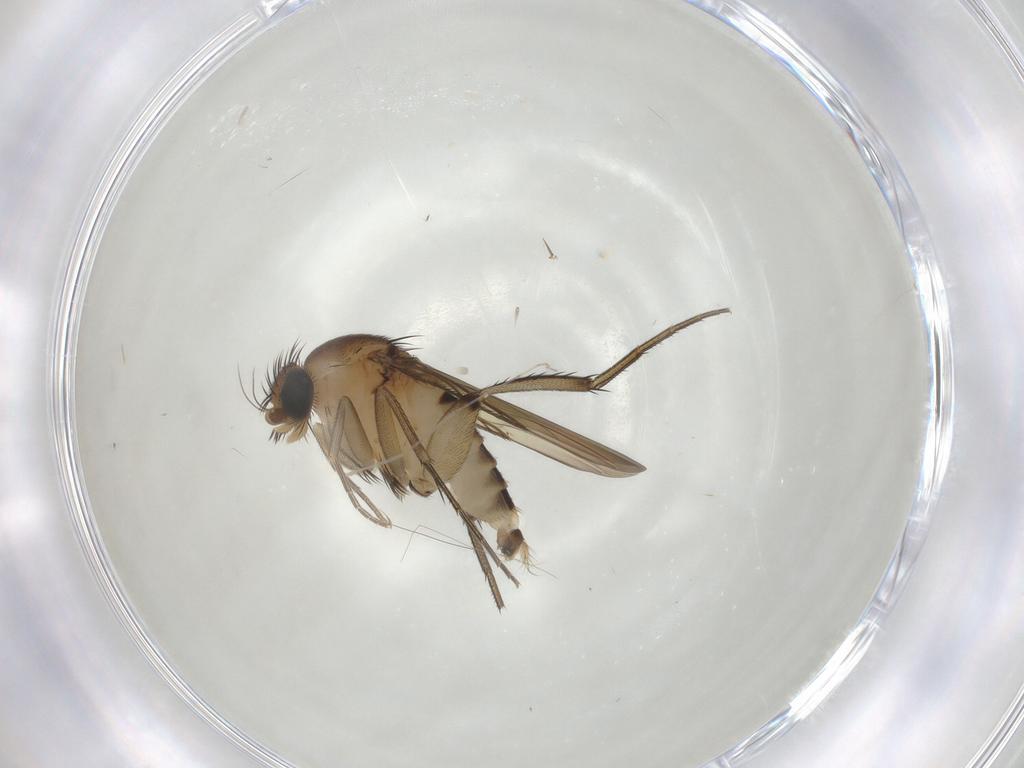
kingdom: Animalia
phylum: Arthropoda
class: Insecta
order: Diptera
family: Phoridae
